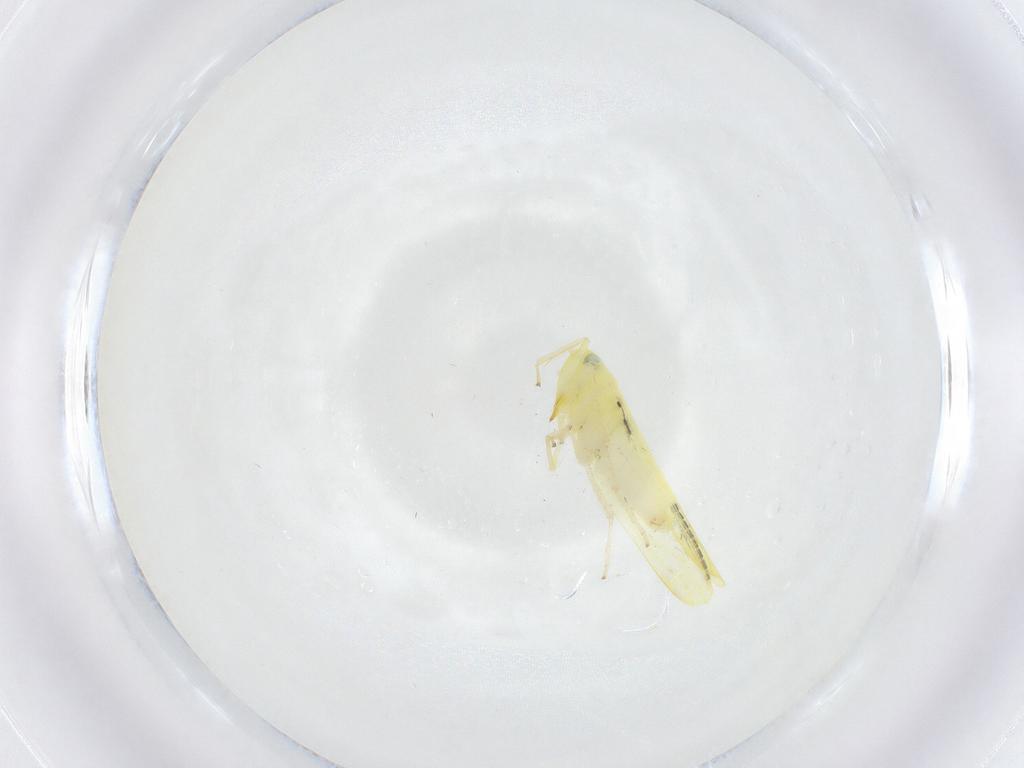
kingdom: Animalia
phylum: Arthropoda
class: Insecta
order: Hemiptera
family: Cicadellidae
